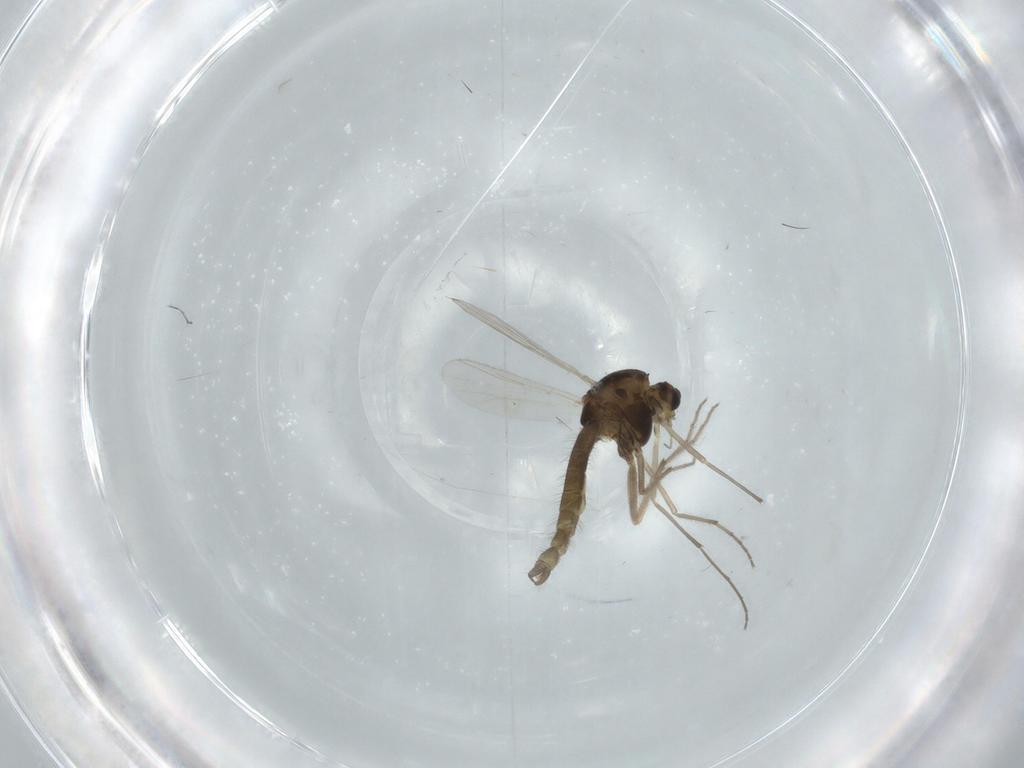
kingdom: Animalia
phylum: Arthropoda
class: Insecta
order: Diptera
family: Chironomidae
